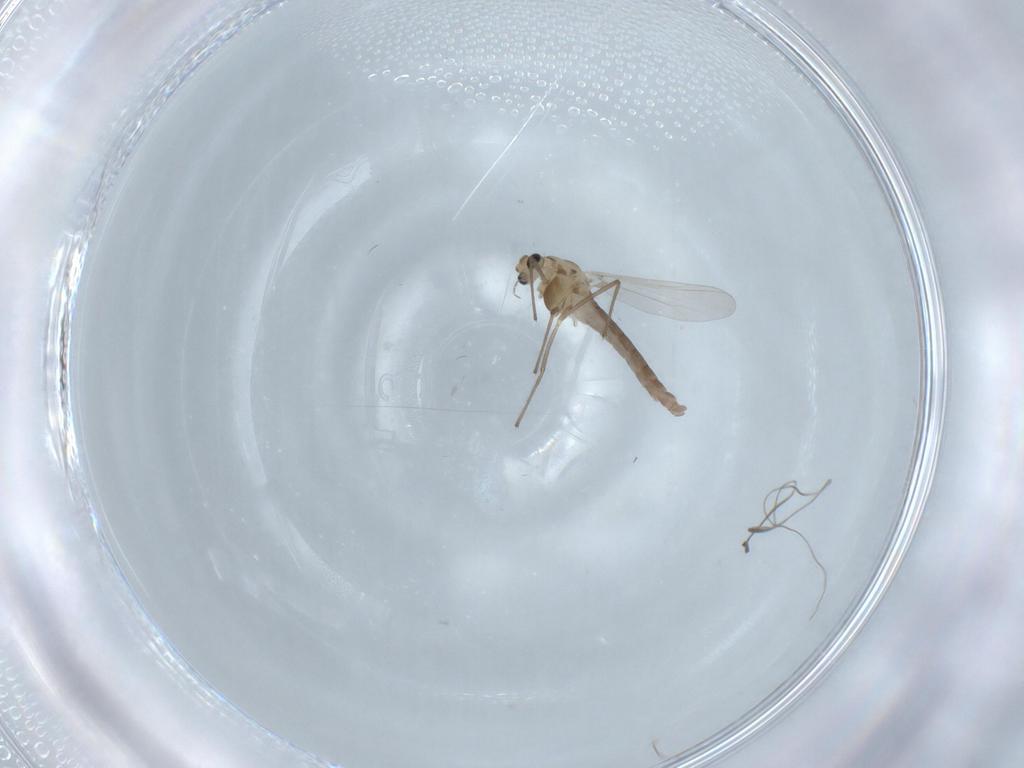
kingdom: Animalia
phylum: Arthropoda
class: Insecta
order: Diptera
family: Chironomidae
